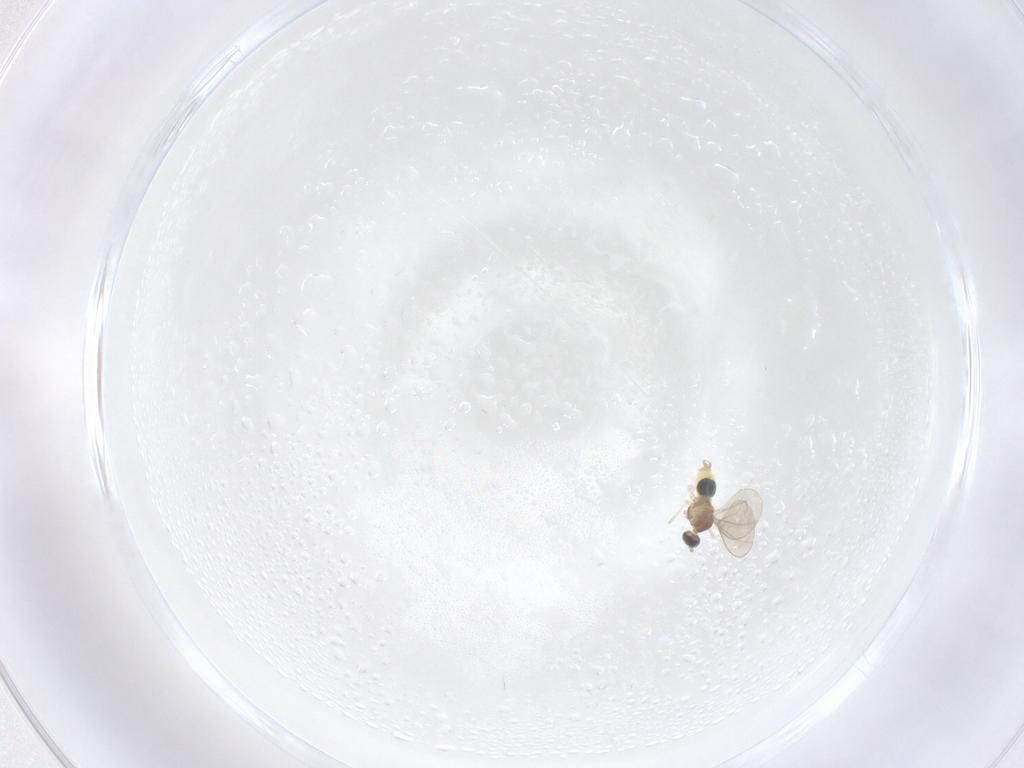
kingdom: Animalia
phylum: Arthropoda
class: Insecta
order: Diptera
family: Cecidomyiidae
